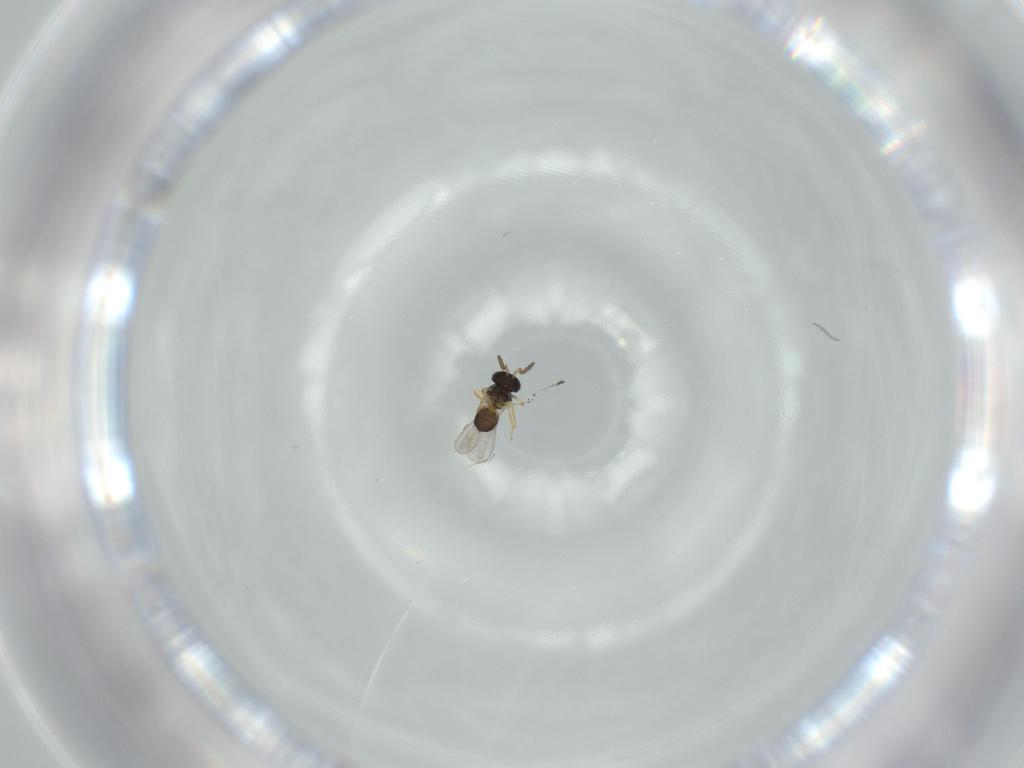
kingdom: Animalia
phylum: Arthropoda
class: Insecta
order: Hymenoptera
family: Scelionidae
